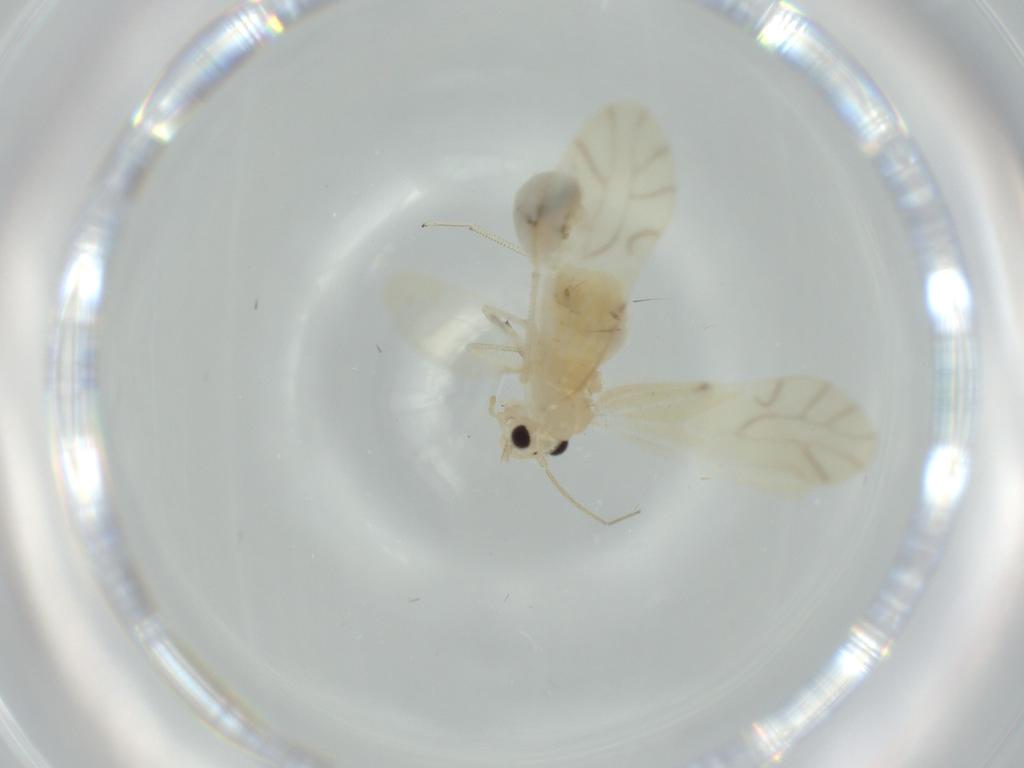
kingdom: Animalia
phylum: Arthropoda
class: Insecta
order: Psocodea
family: Caeciliusidae
